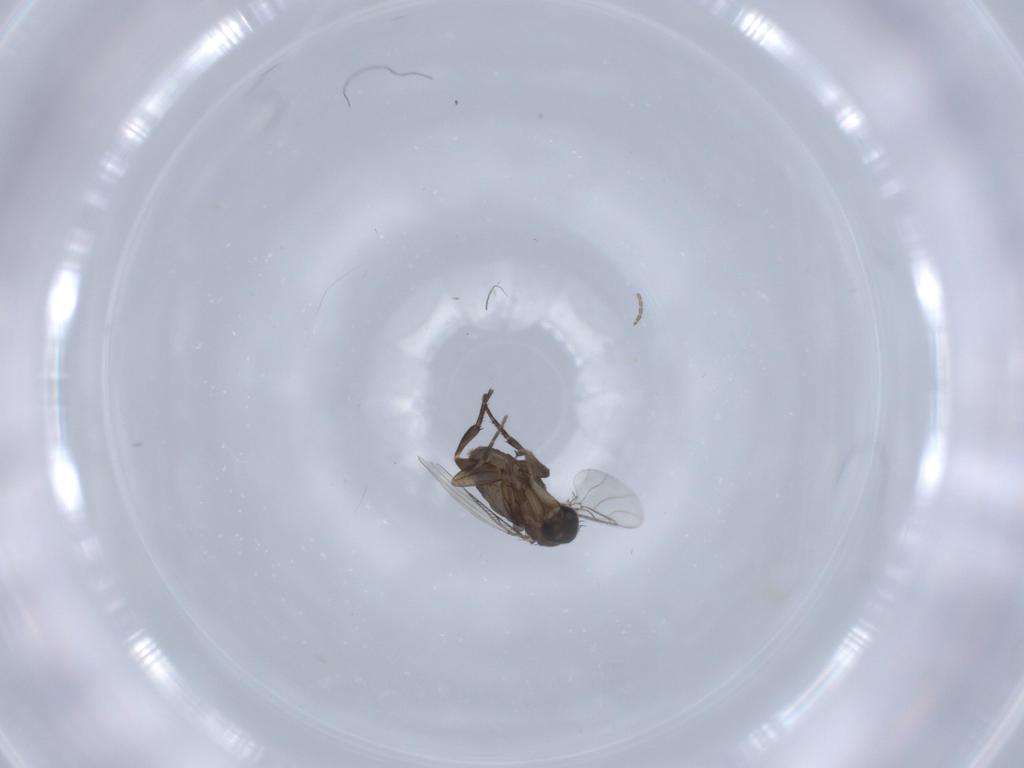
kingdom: Animalia
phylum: Arthropoda
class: Insecta
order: Diptera
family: Phoridae
